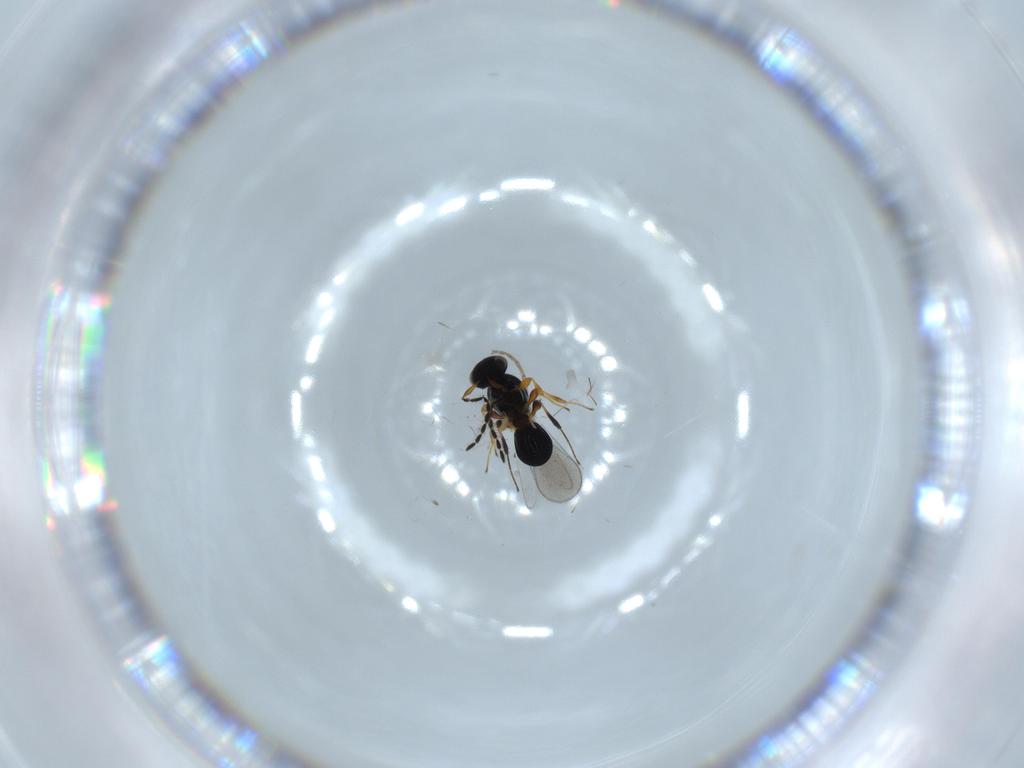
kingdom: Animalia
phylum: Arthropoda
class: Insecta
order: Hymenoptera
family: Platygastridae
